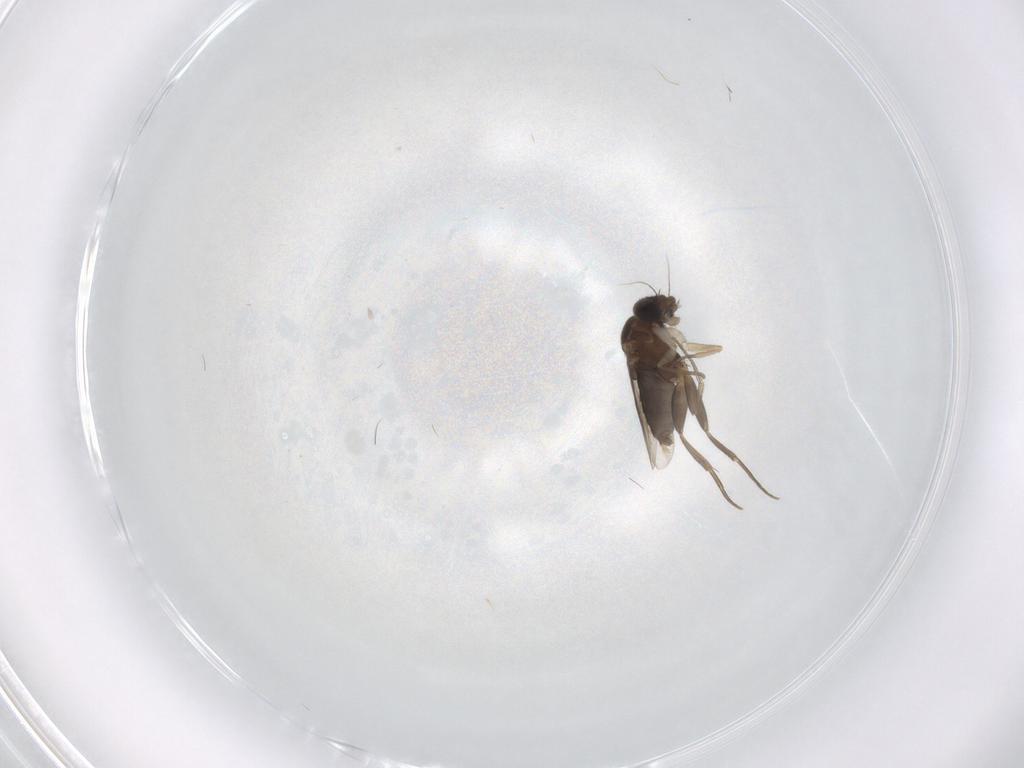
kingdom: Animalia
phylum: Arthropoda
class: Insecta
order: Diptera
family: Phoridae
